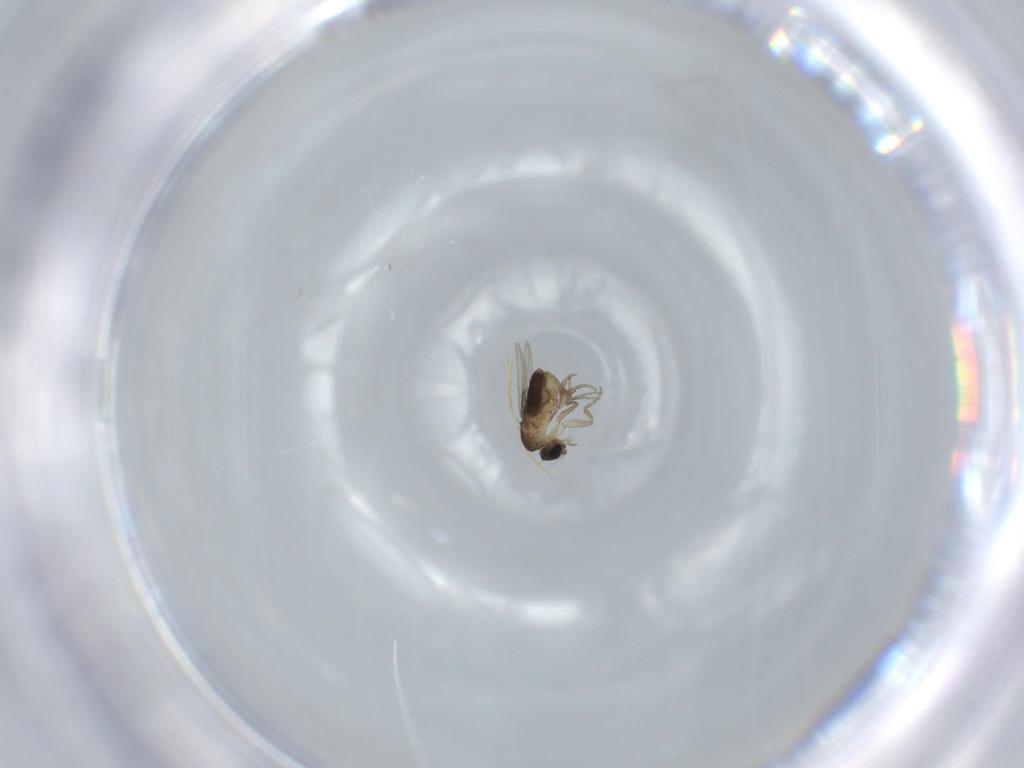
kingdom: Animalia
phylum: Arthropoda
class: Insecta
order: Diptera
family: Phoridae
